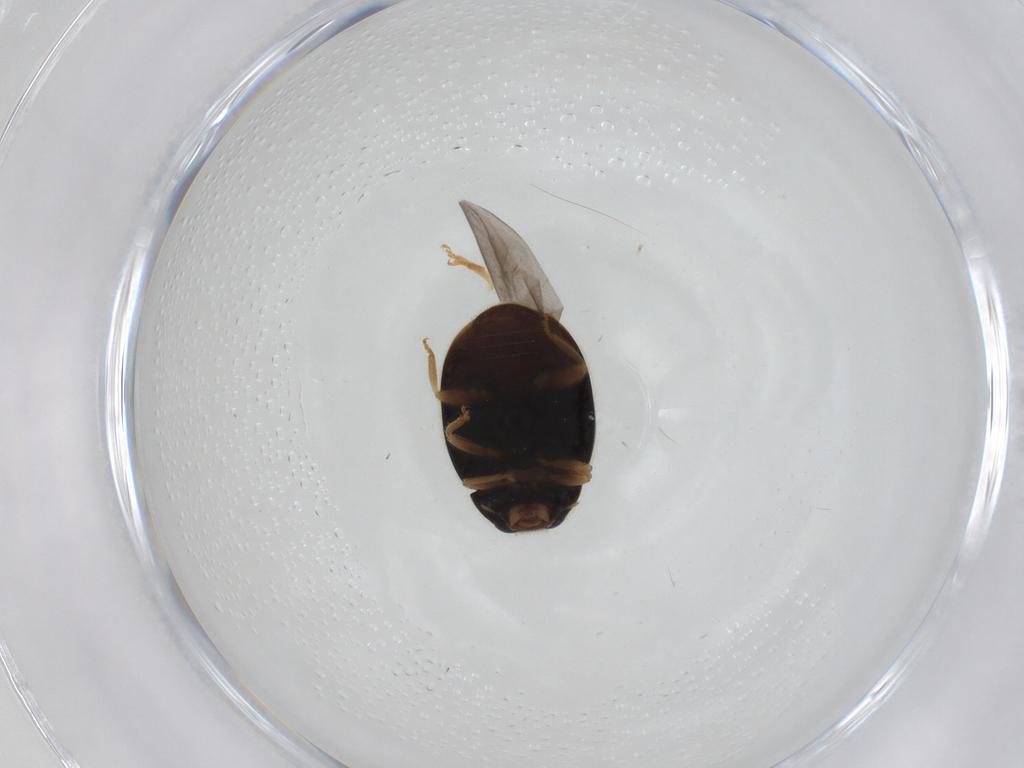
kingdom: Animalia
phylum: Arthropoda
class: Insecta
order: Coleoptera
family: Coccinellidae
